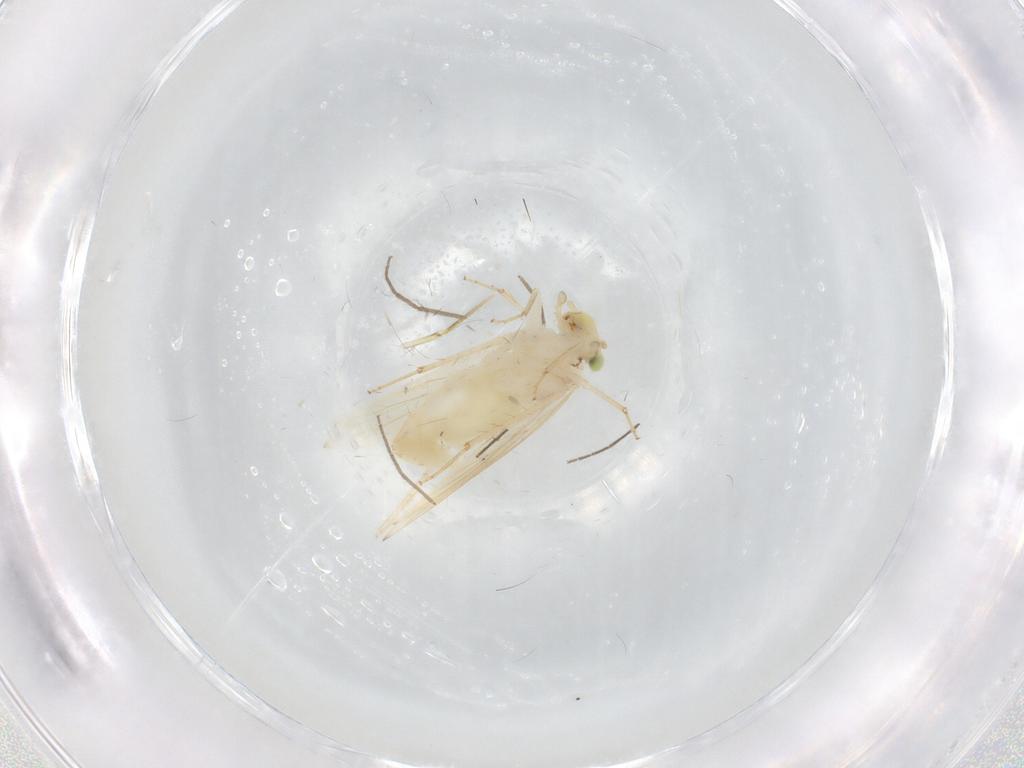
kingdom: Animalia
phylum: Arthropoda
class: Insecta
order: Psocodea
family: Lepidopsocidae
